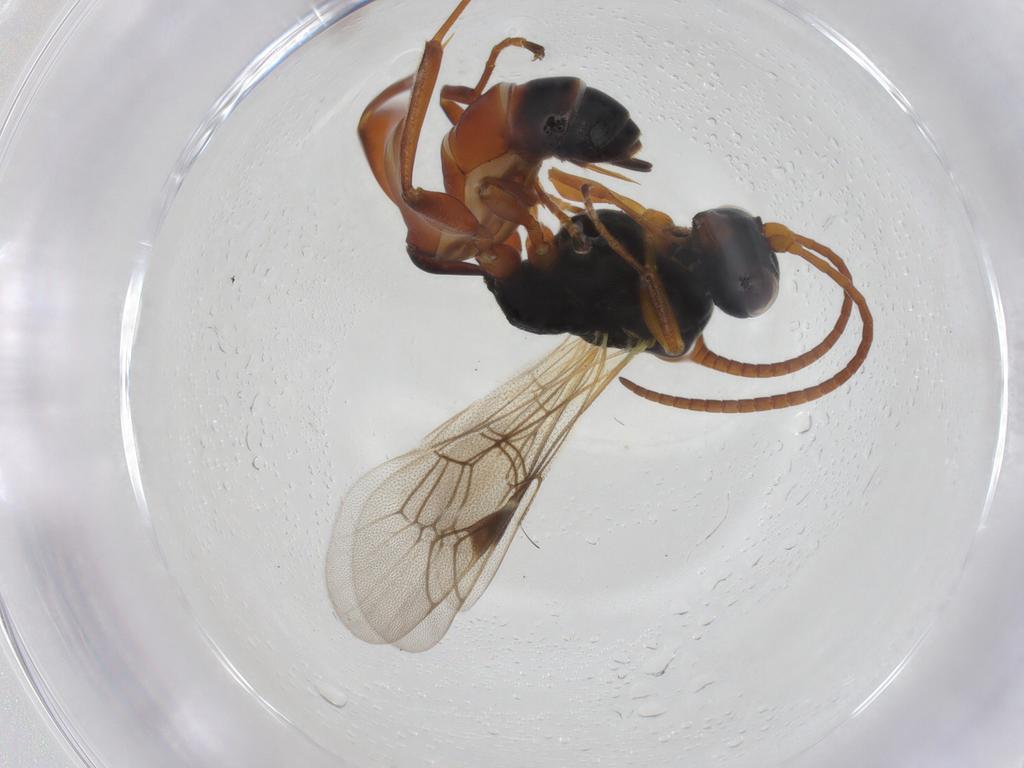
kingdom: Animalia
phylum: Arthropoda
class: Insecta
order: Hymenoptera
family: Ichneumonidae
